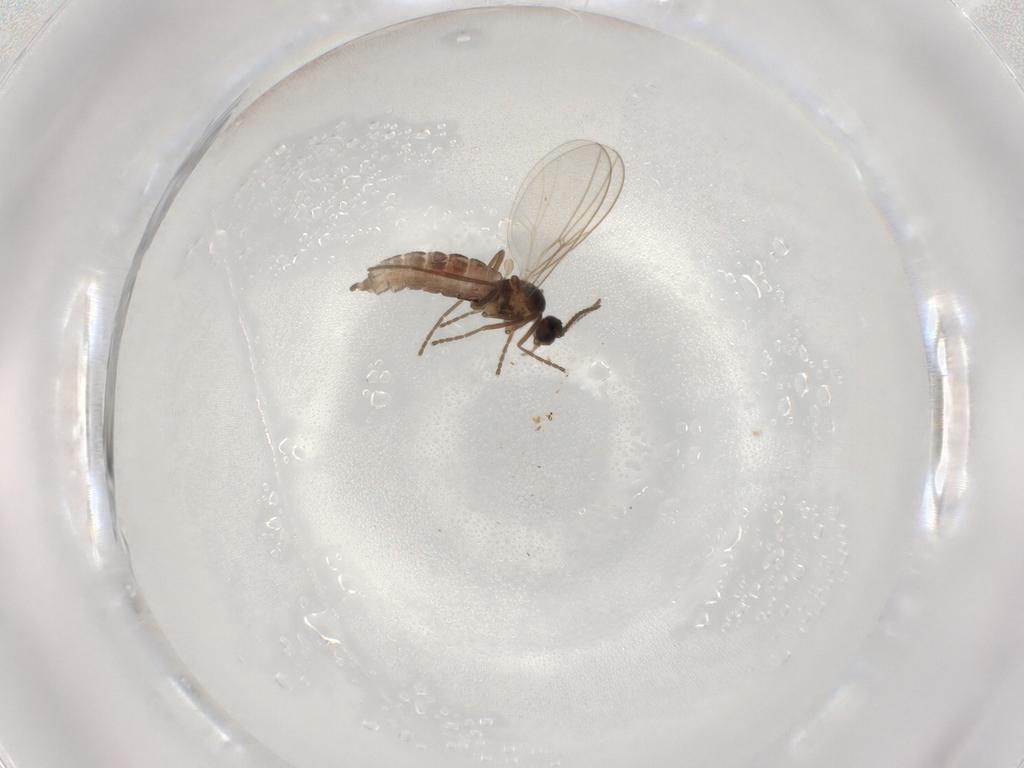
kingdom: Animalia
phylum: Arthropoda
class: Insecta
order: Diptera
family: Cecidomyiidae
